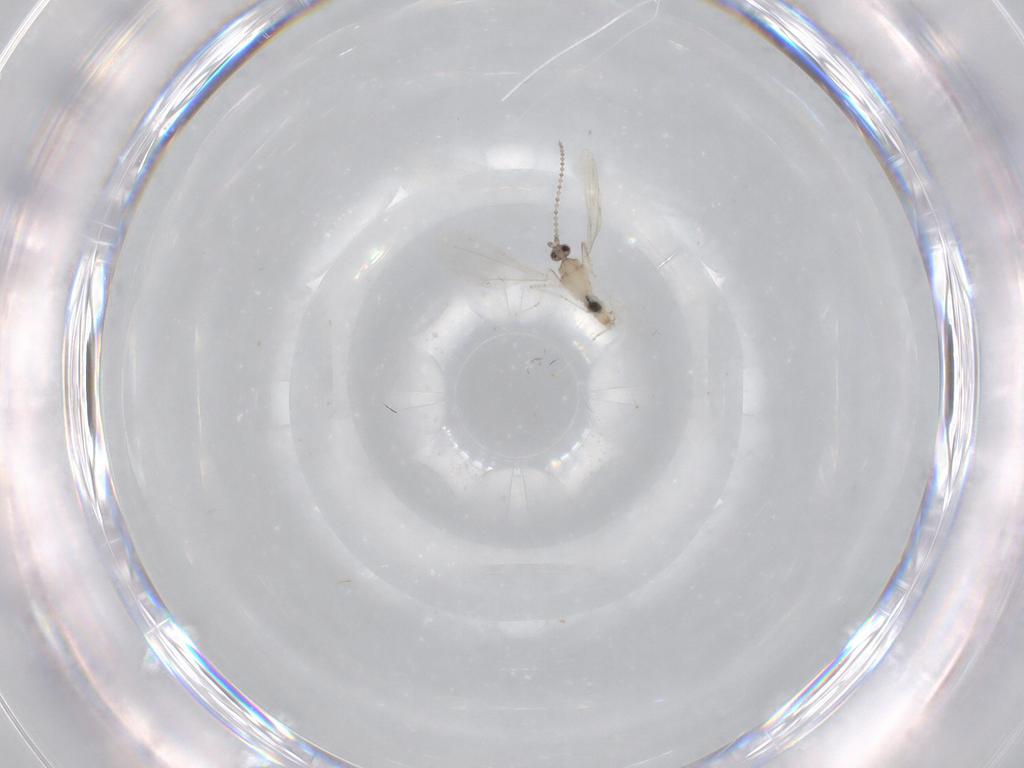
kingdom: Animalia
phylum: Arthropoda
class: Insecta
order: Diptera
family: Cecidomyiidae
